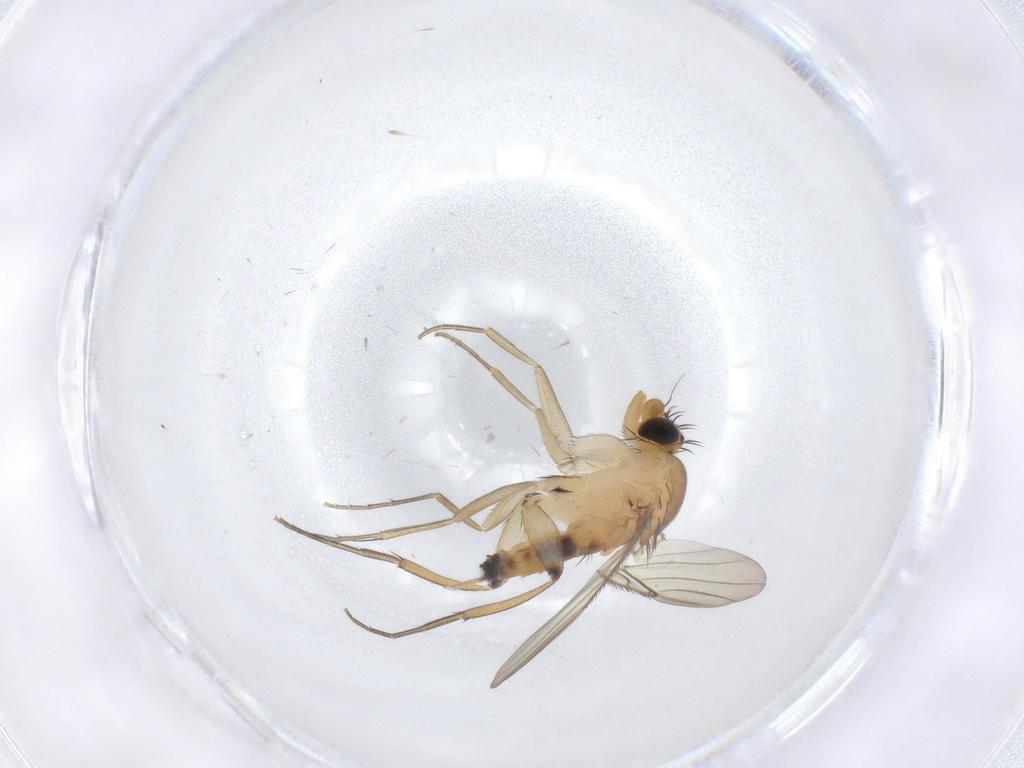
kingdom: Animalia
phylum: Arthropoda
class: Insecta
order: Diptera
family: Phoridae
